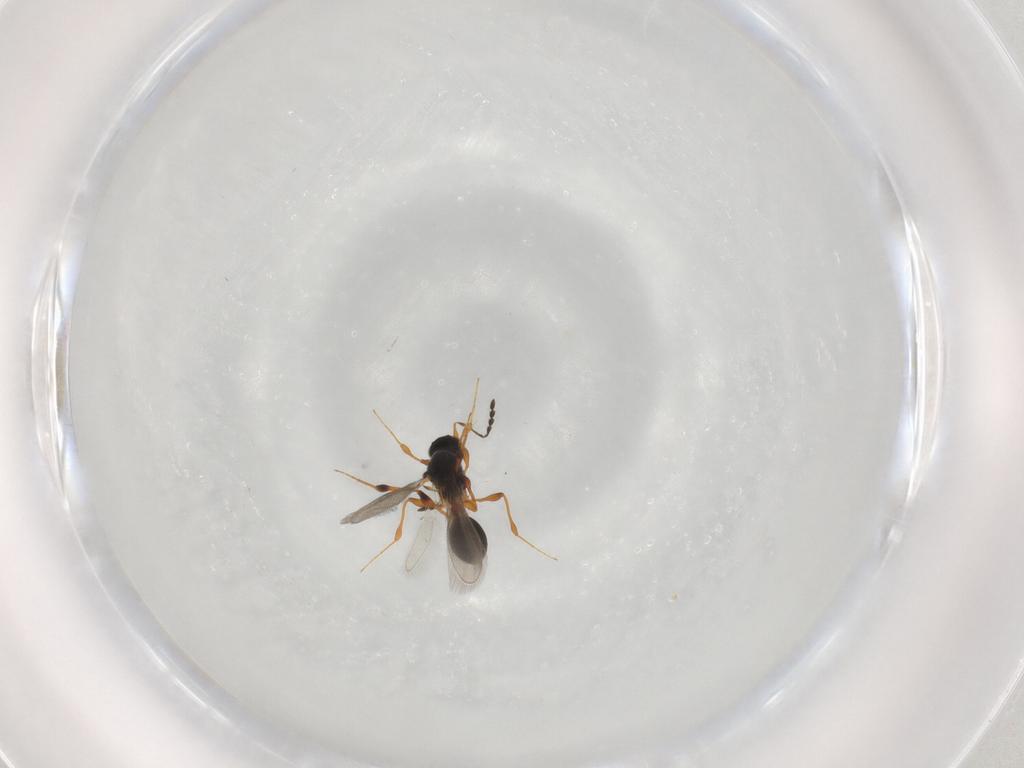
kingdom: Animalia
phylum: Arthropoda
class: Insecta
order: Hymenoptera
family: Platygastridae
